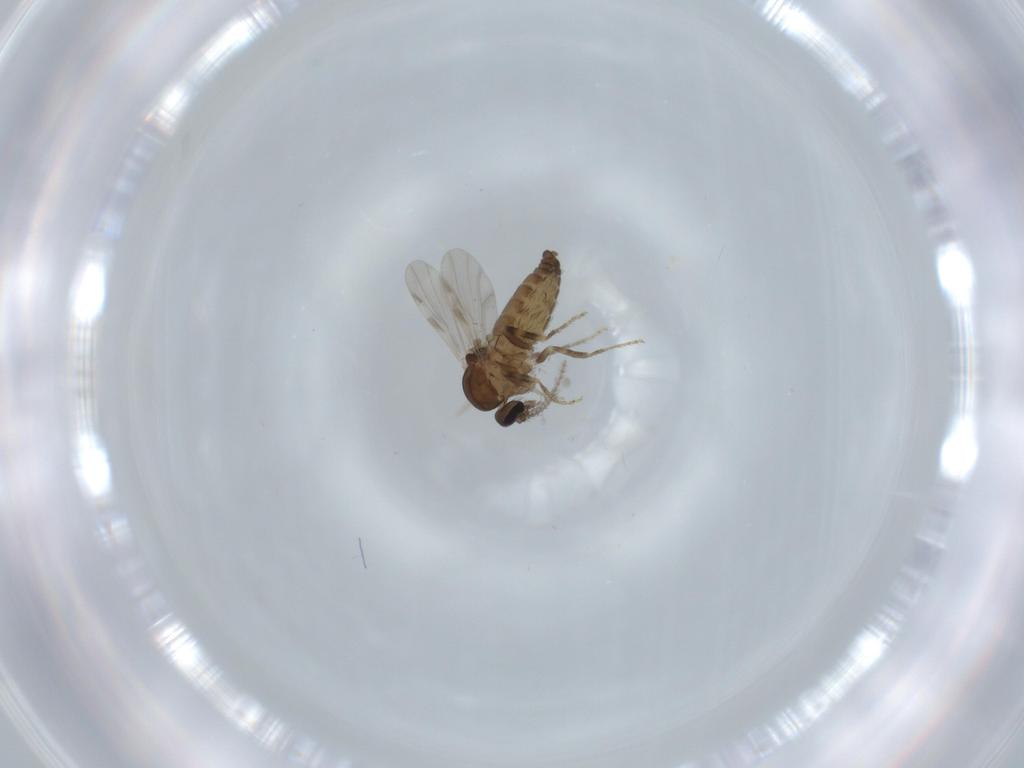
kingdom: Animalia
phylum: Arthropoda
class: Insecta
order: Diptera
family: Ceratopogonidae
